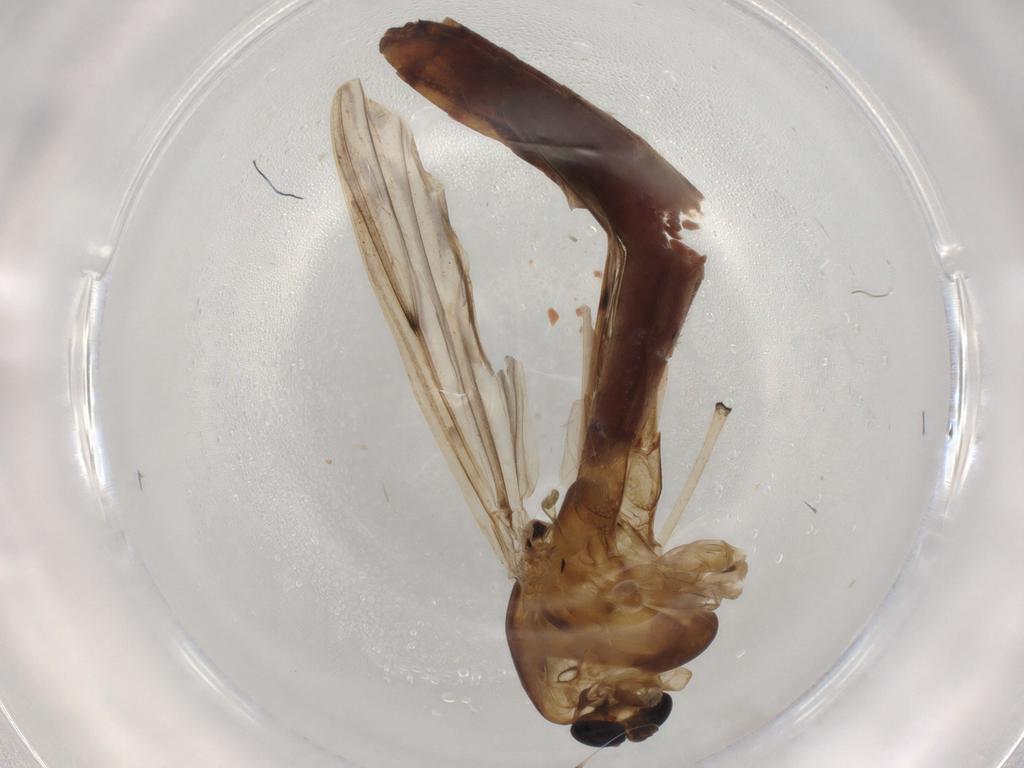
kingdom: Animalia
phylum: Arthropoda
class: Insecta
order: Diptera
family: Chironomidae
